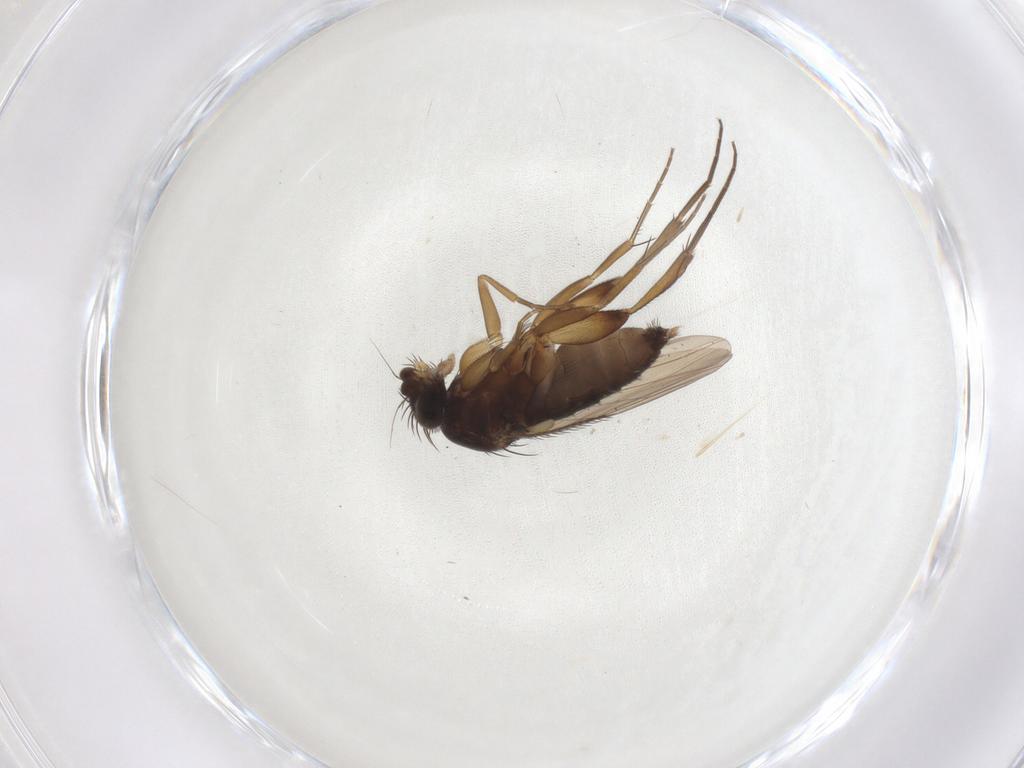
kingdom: Animalia
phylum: Arthropoda
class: Insecta
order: Diptera
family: Phoridae
